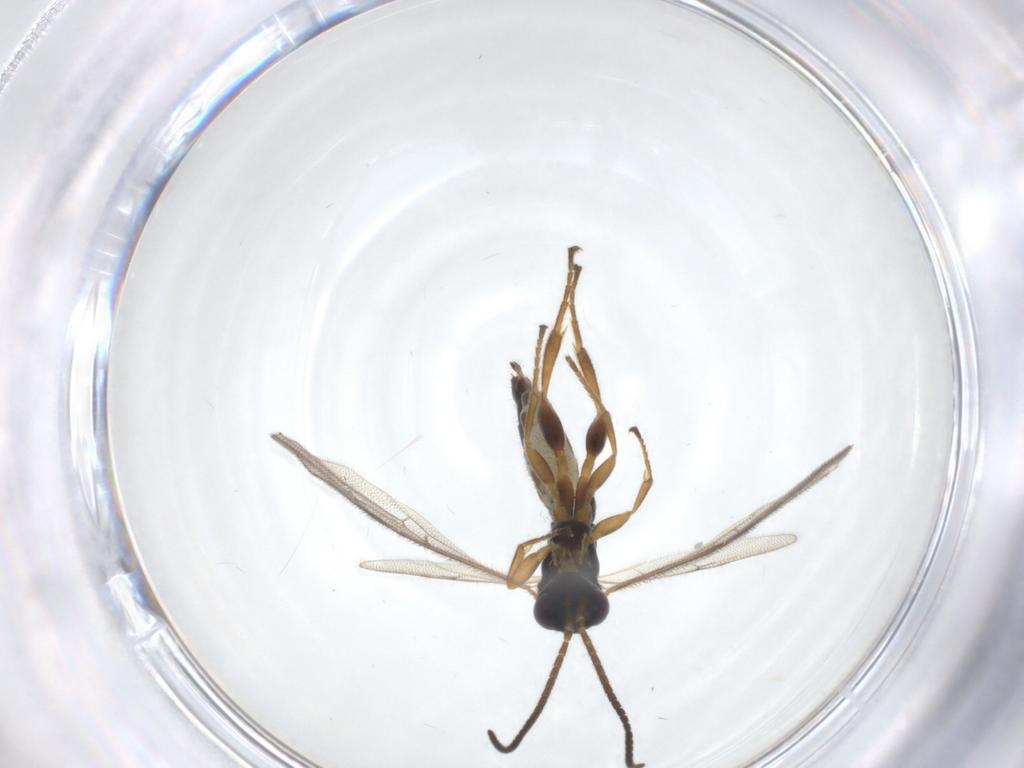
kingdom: Animalia
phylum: Arthropoda
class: Insecta
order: Hymenoptera
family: Ichneumonidae
